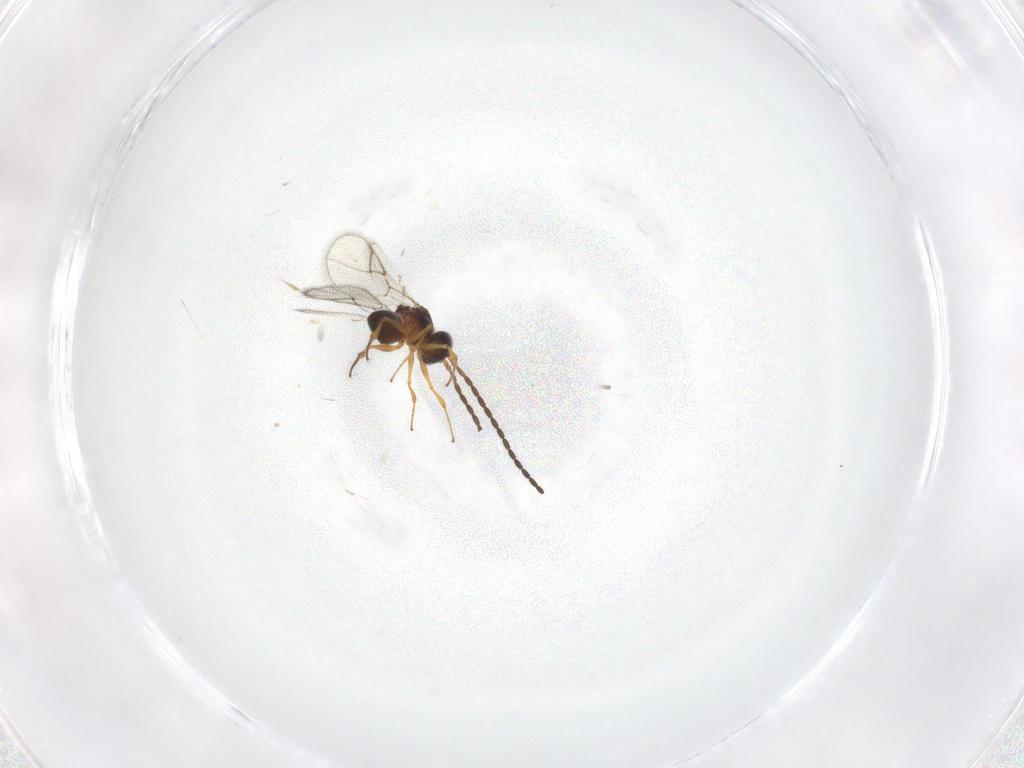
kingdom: Animalia
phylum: Arthropoda
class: Insecta
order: Hymenoptera
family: Figitidae
